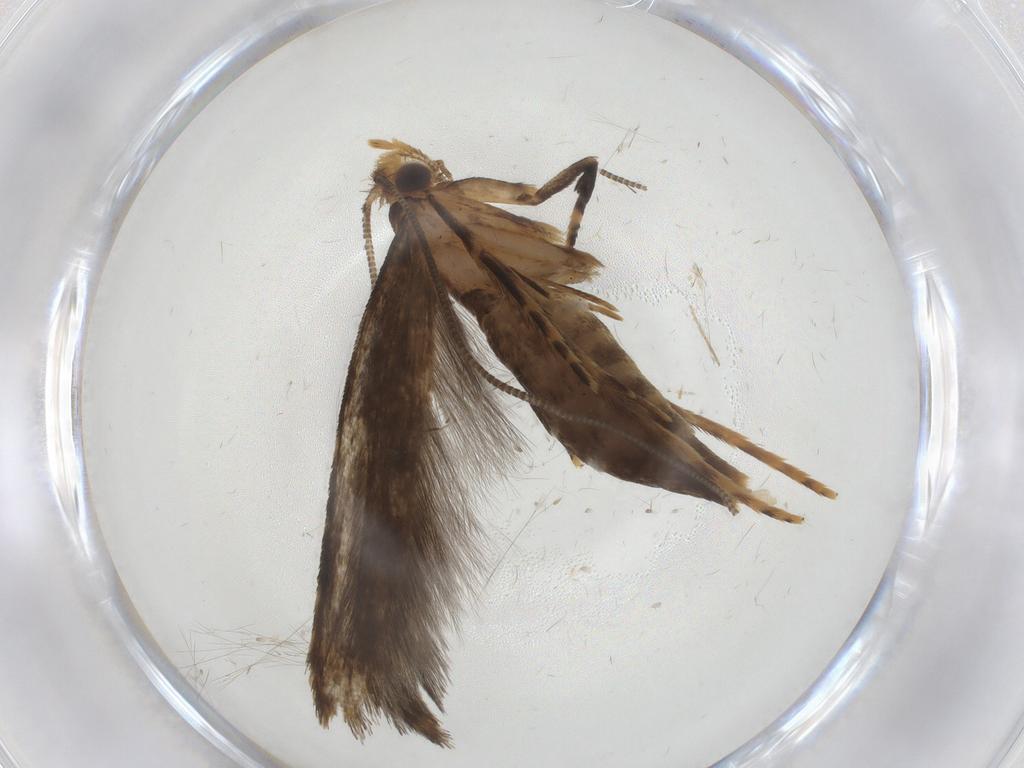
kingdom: Animalia
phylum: Arthropoda
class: Insecta
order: Lepidoptera
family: Tineidae
